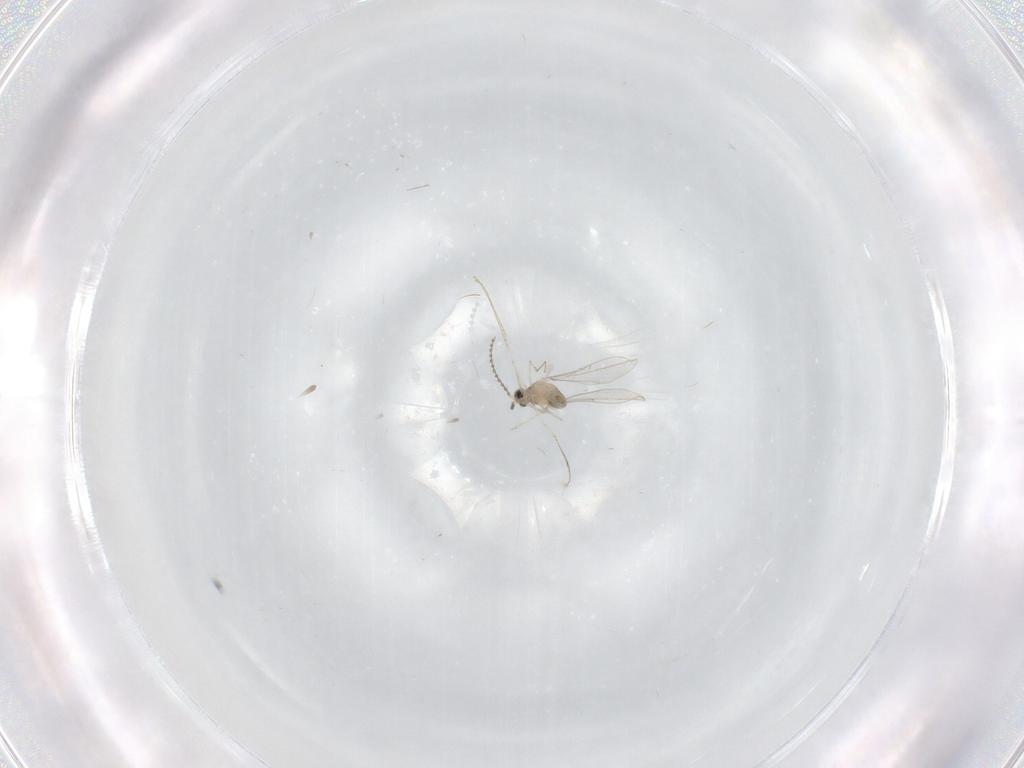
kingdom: Animalia
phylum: Arthropoda
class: Insecta
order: Diptera
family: Cecidomyiidae
